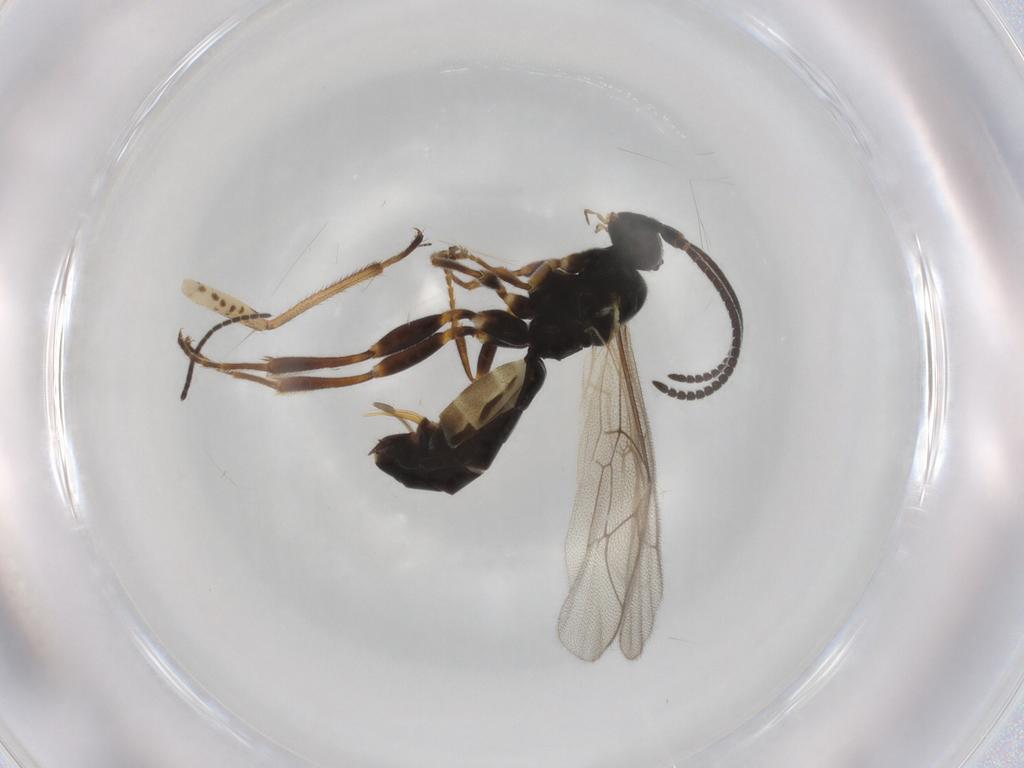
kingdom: Animalia
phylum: Arthropoda
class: Insecta
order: Hymenoptera
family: Ichneumonidae
